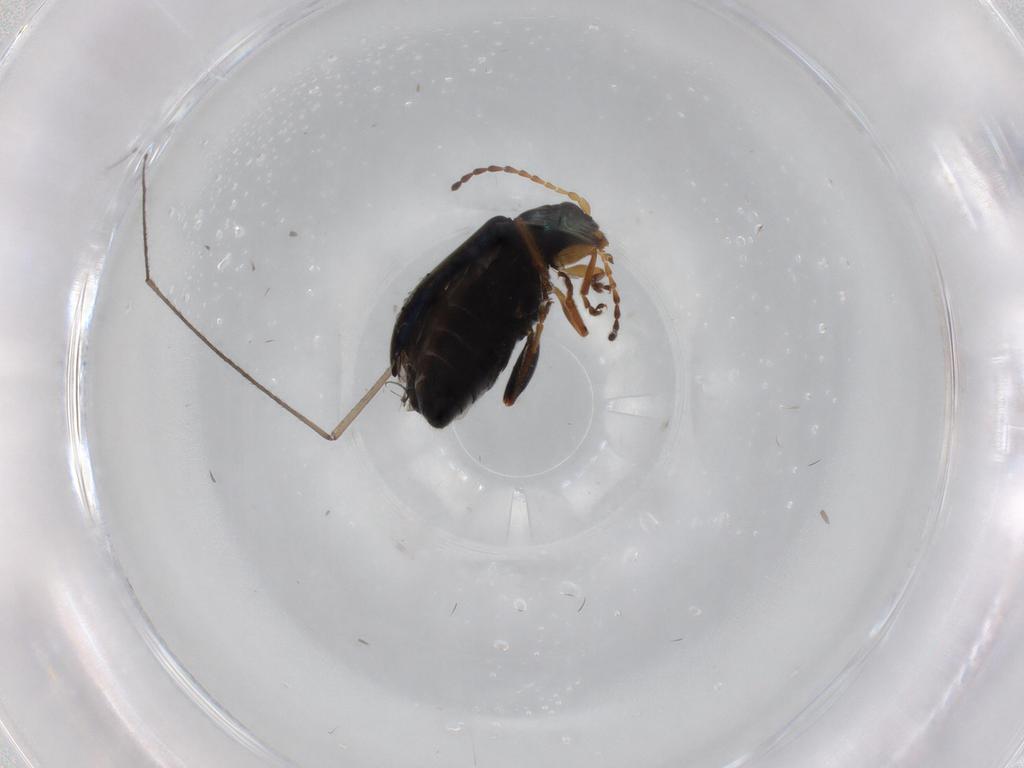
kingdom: Animalia
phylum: Arthropoda
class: Insecta
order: Coleoptera
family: Chrysomelidae
